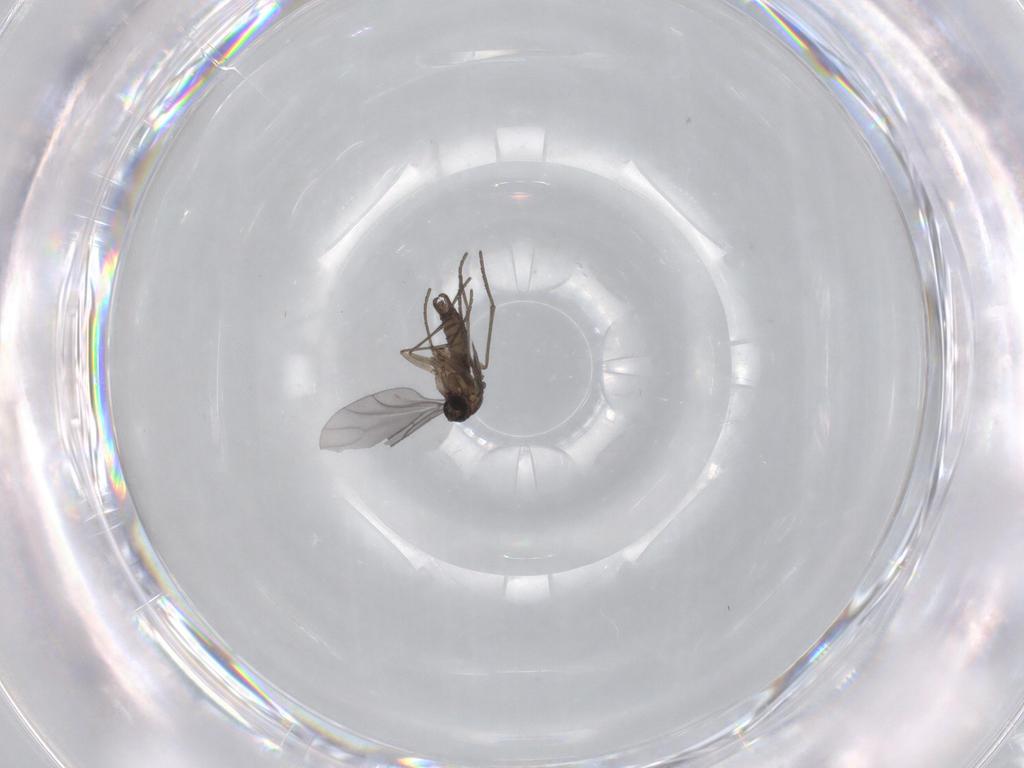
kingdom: Animalia
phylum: Arthropoda
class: Insecta
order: Diptera
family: Sciaridae
